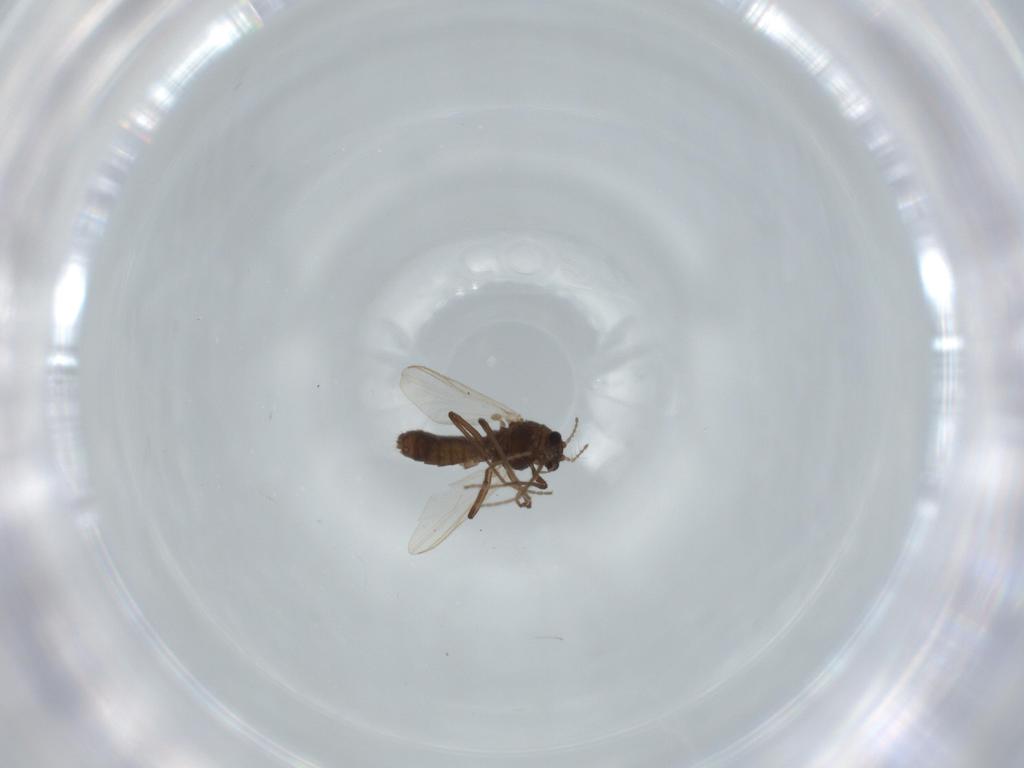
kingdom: Animalia
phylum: Arthropoda
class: Insecta
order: Diptera
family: Chironomidae
